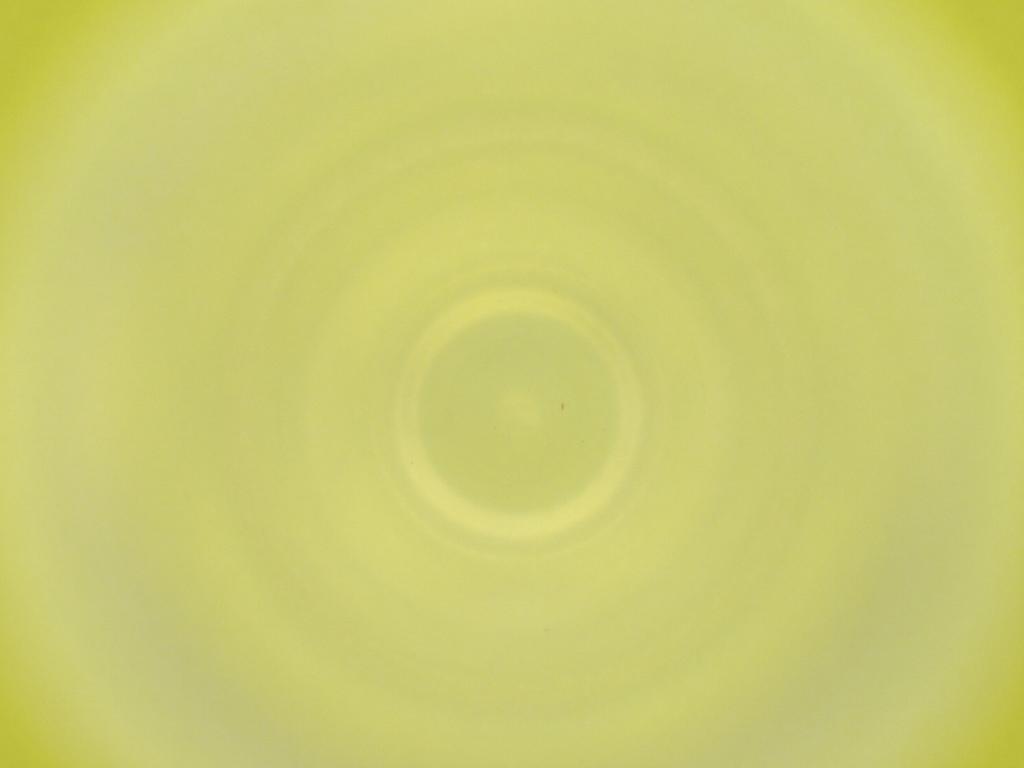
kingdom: Animalia
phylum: Arthropoda
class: Insecta
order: Diptera
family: Cecidomyiidae
